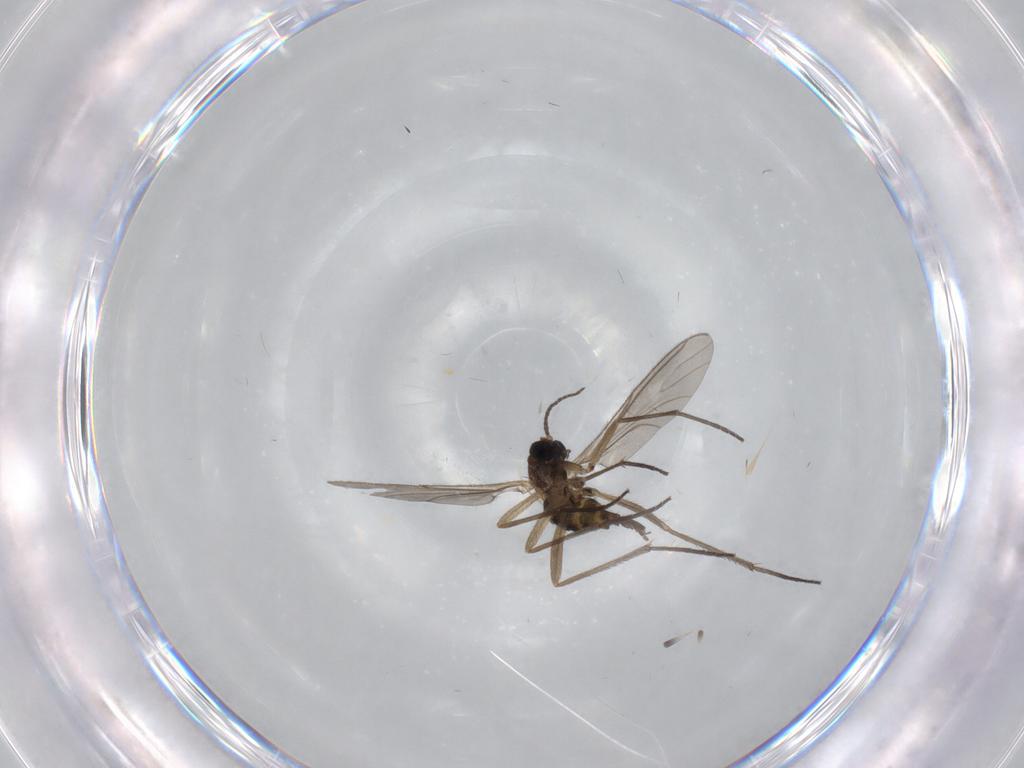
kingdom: Animalia
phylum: Arthropoda
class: Insecta
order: Diptera
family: Sciaridae
